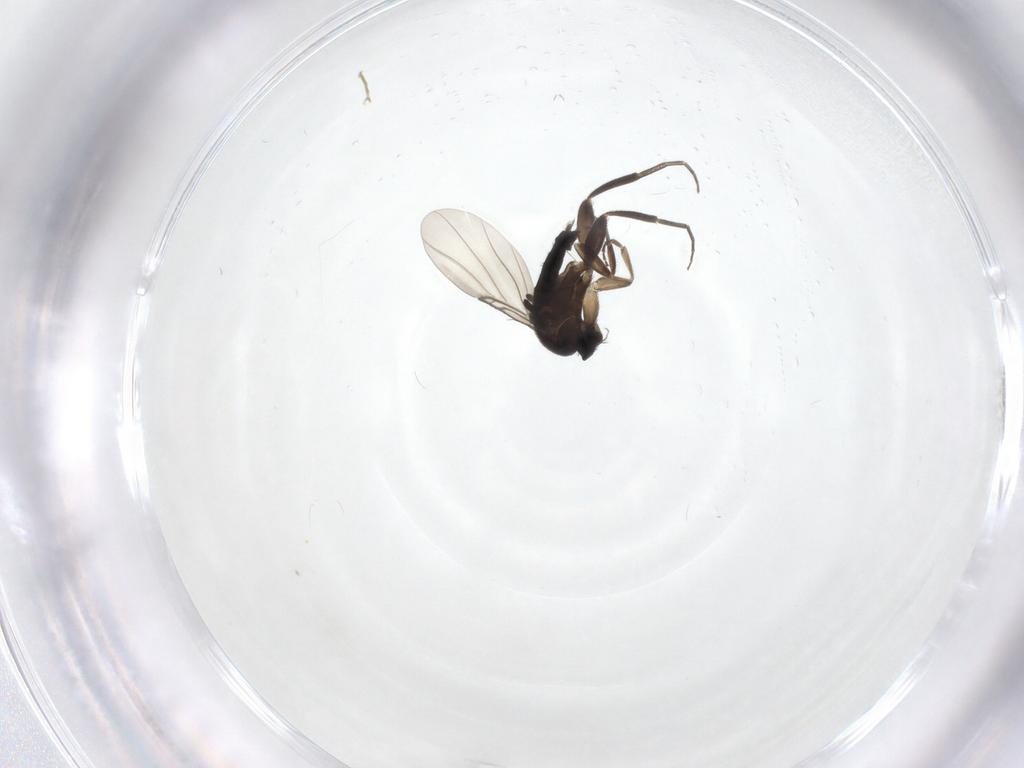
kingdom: Animalia
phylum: Arthropoda
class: Insecta
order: Diptera
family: Phoridae
